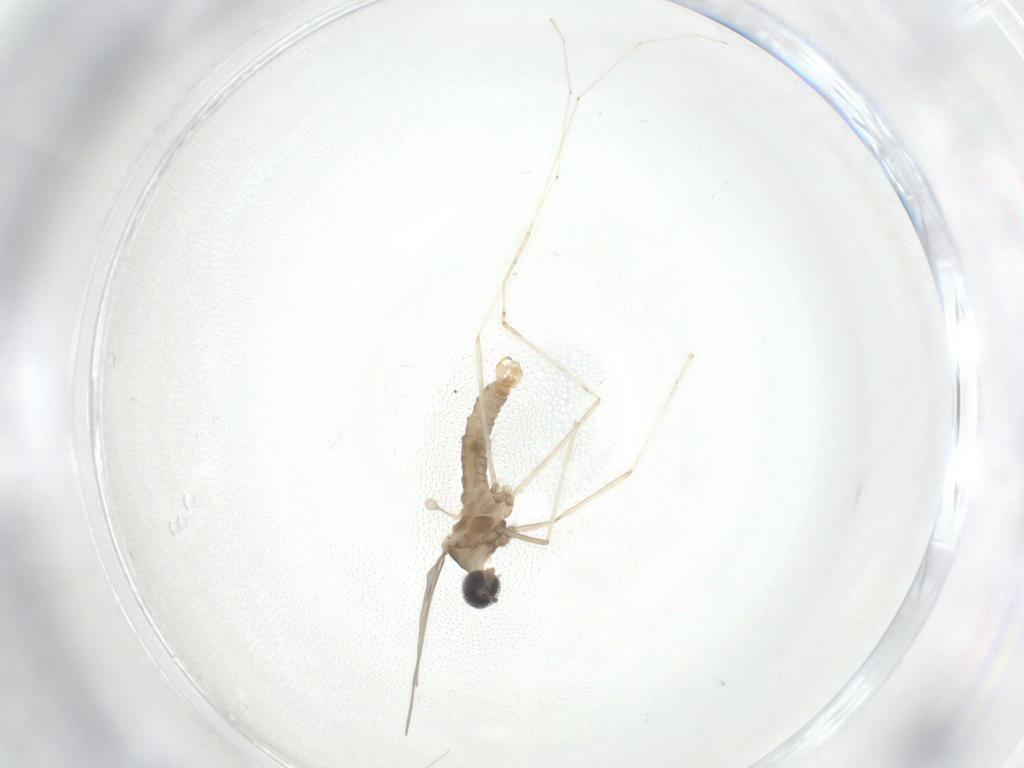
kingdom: Animalia
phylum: Arthropoda
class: Insecta
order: Diptera
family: Cecidomyiidae
